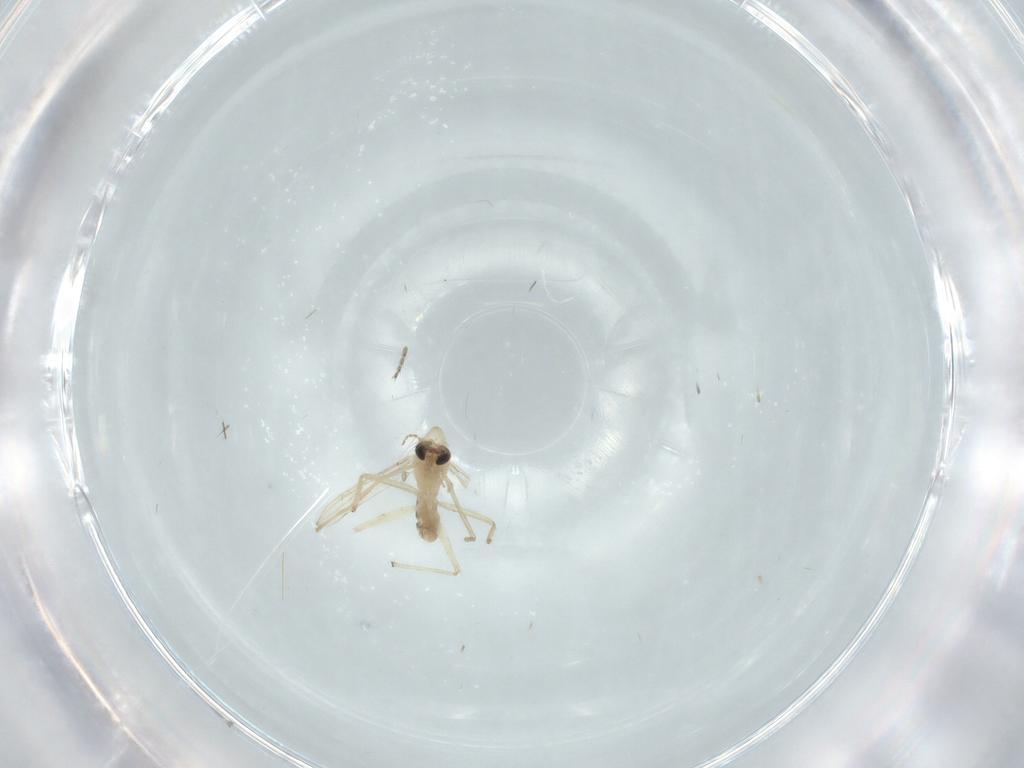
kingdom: Animalia
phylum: Arthropoda
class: Insecta
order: Diptera
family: Chironomidae
